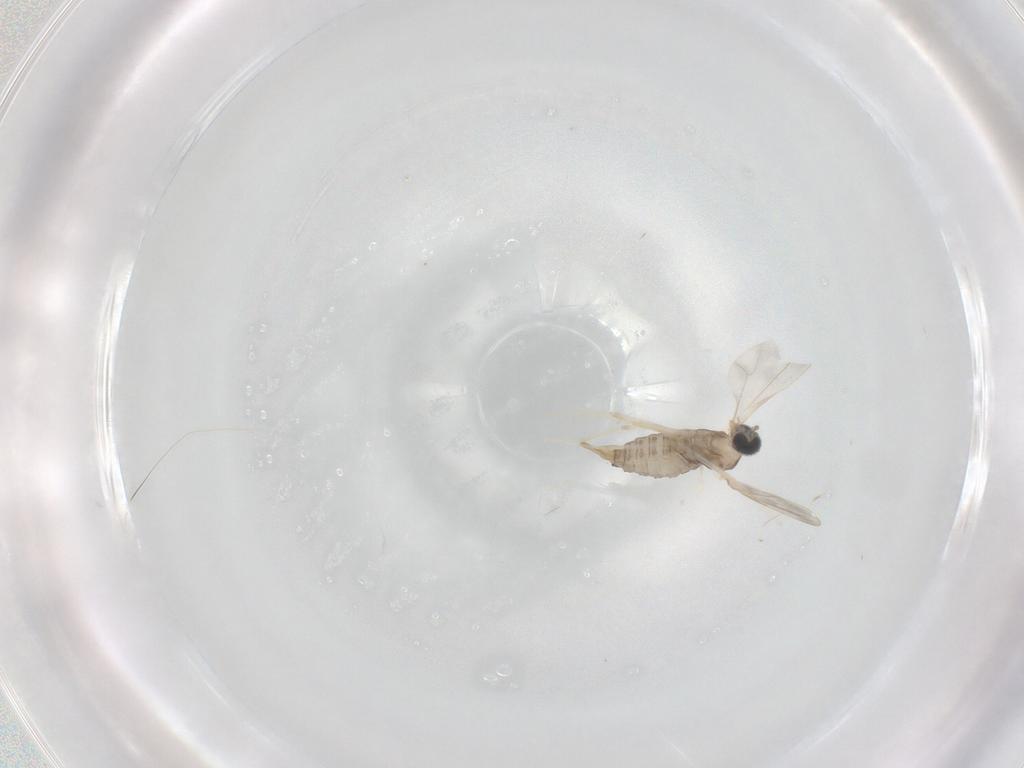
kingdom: Animalia
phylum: Arthropoda
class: Insecta
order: Diptera
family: Cecidomyiidae
